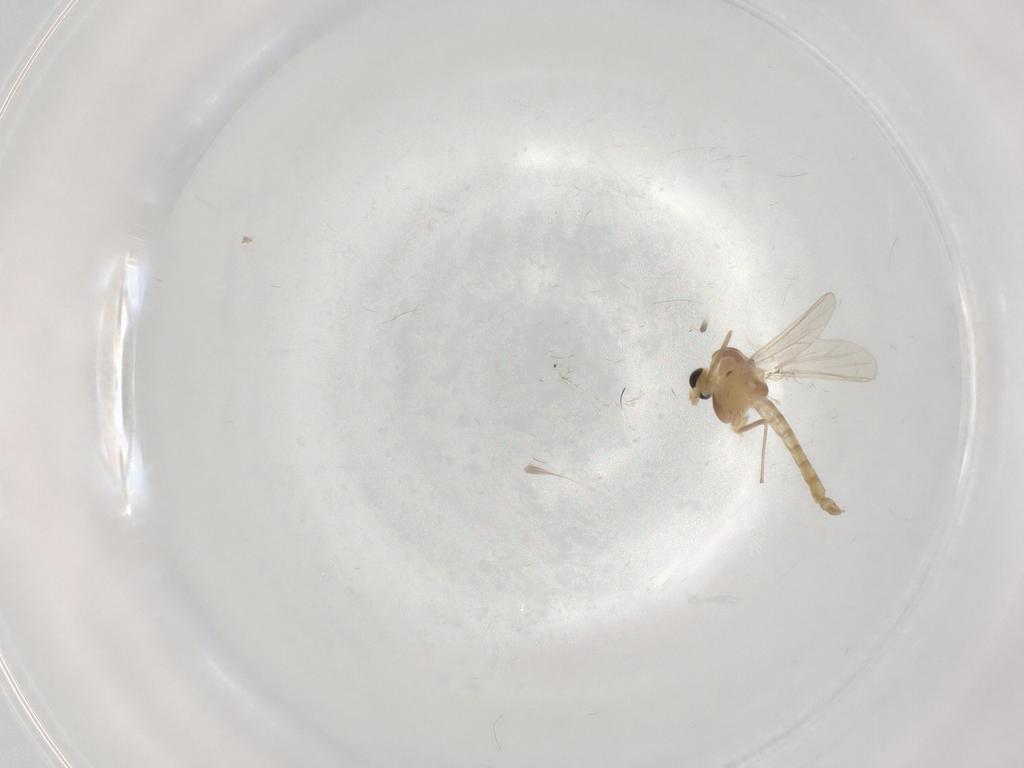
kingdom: Animalia
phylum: Arthropoda
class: Insecta
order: Diptera
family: Chironomidae
